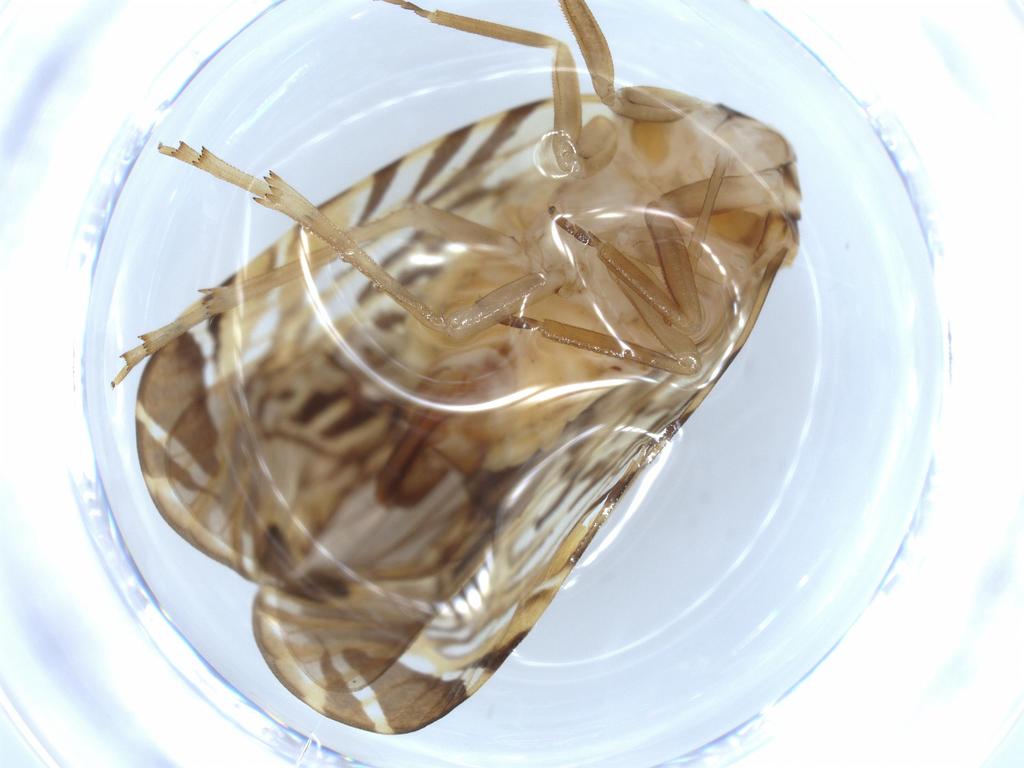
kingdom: Animalia
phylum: Arthropoda
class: Insecta
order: Hemiptera
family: Cixiidae
